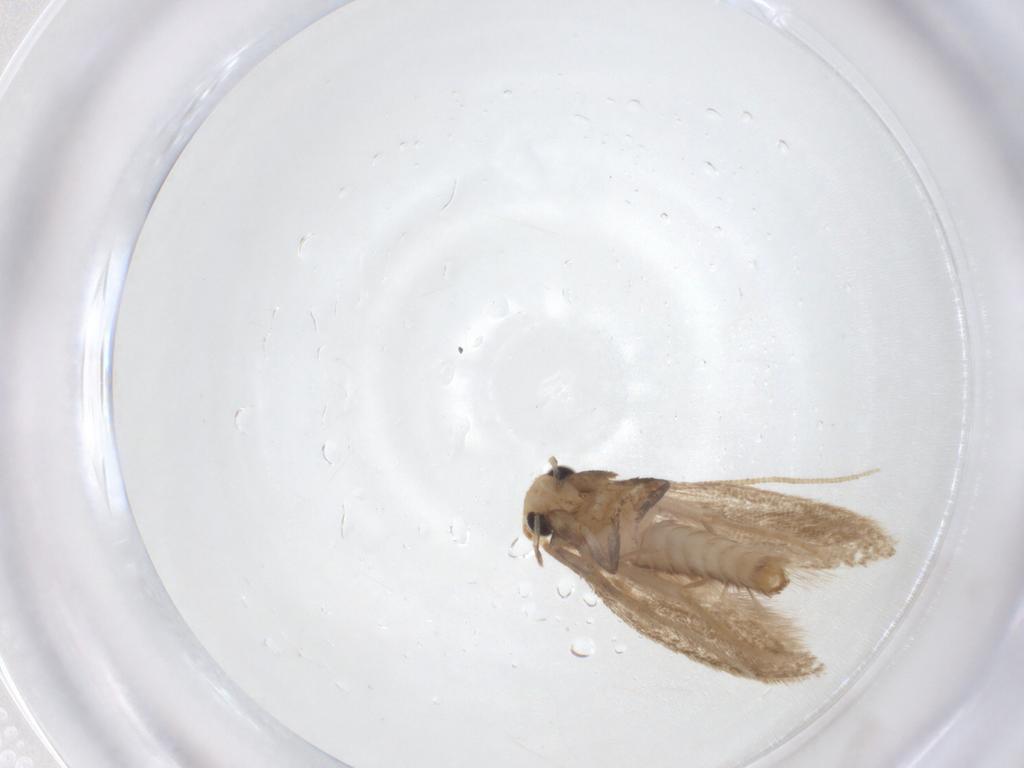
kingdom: Animalia
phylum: Arthropoda
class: Insecta
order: Lepidoptera
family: Tineidae
